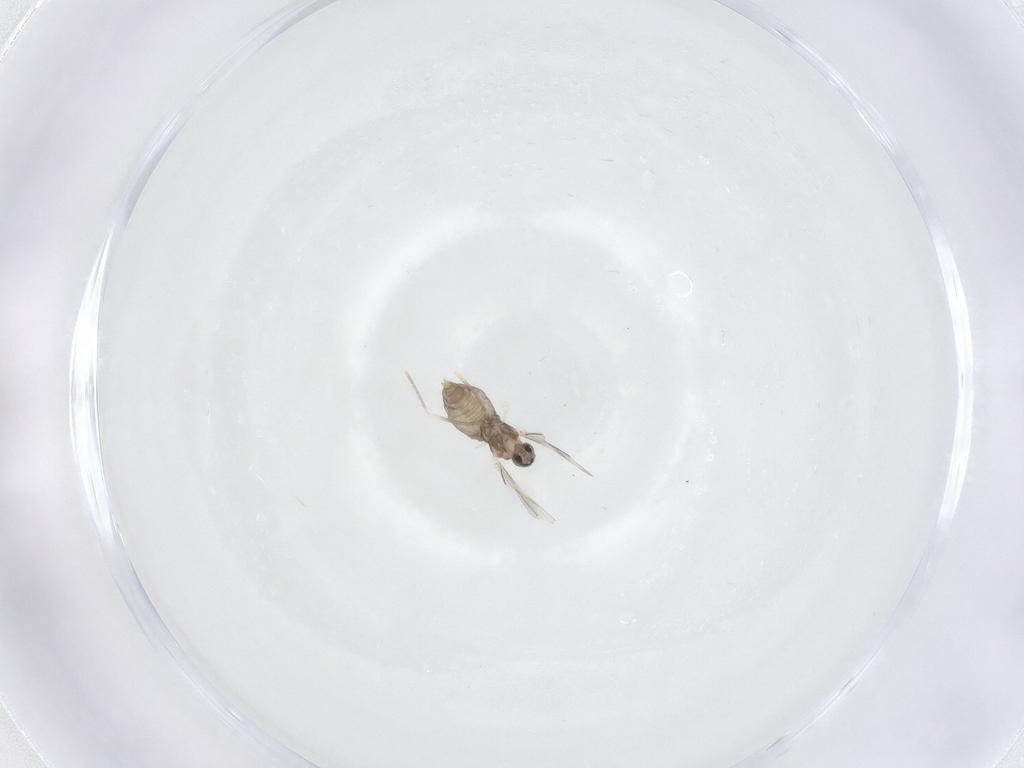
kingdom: Animalia
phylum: Arthropoda
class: Insecta
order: Diptera
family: Cecidomyiidae
